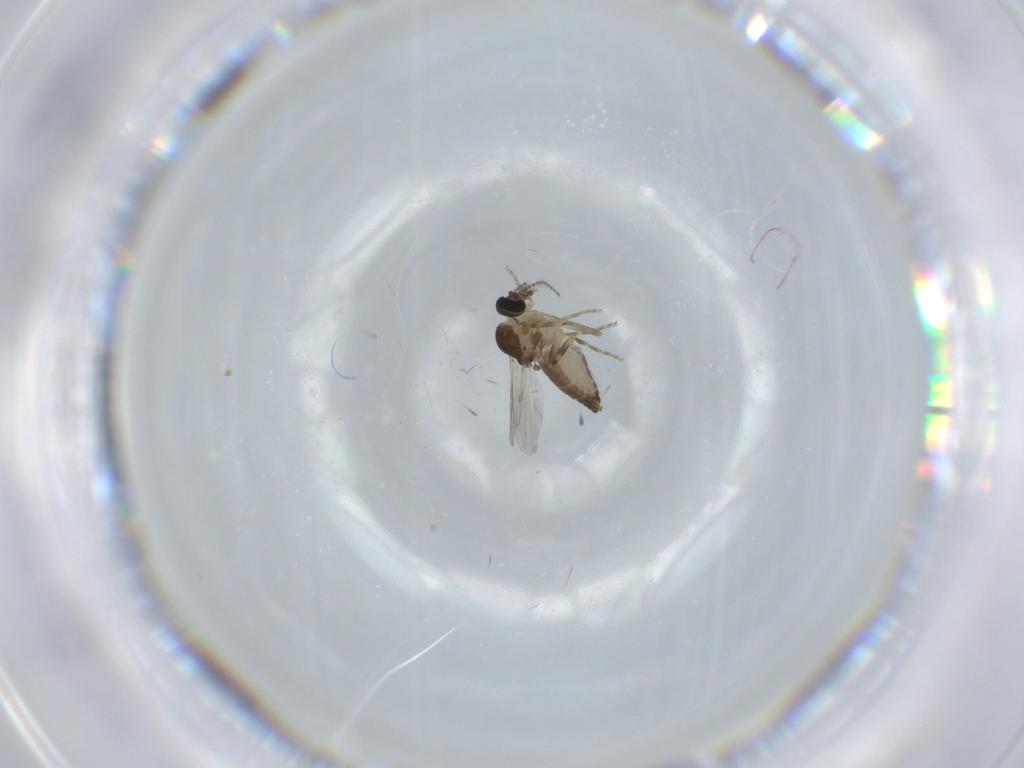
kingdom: Animalia
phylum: Arthropoda
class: Insecta
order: Diptera
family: Ceratopogonidae
